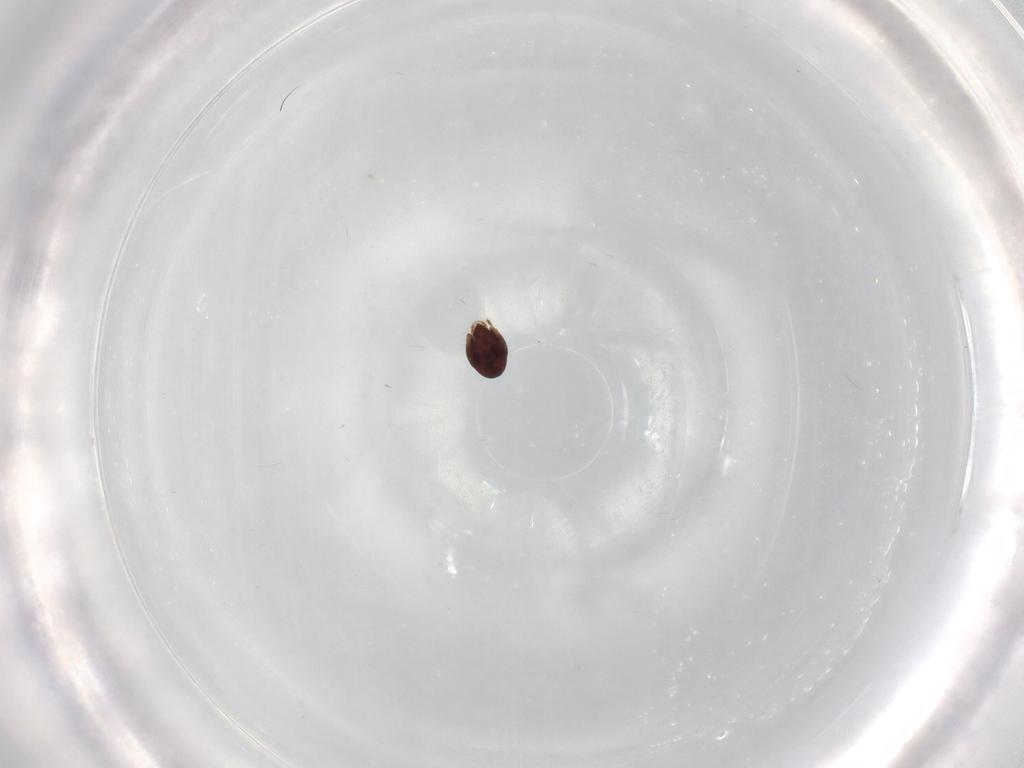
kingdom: Animalia
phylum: Arthropoda
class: Arachnida
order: Sarcoptiformes
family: Achipteriidae
